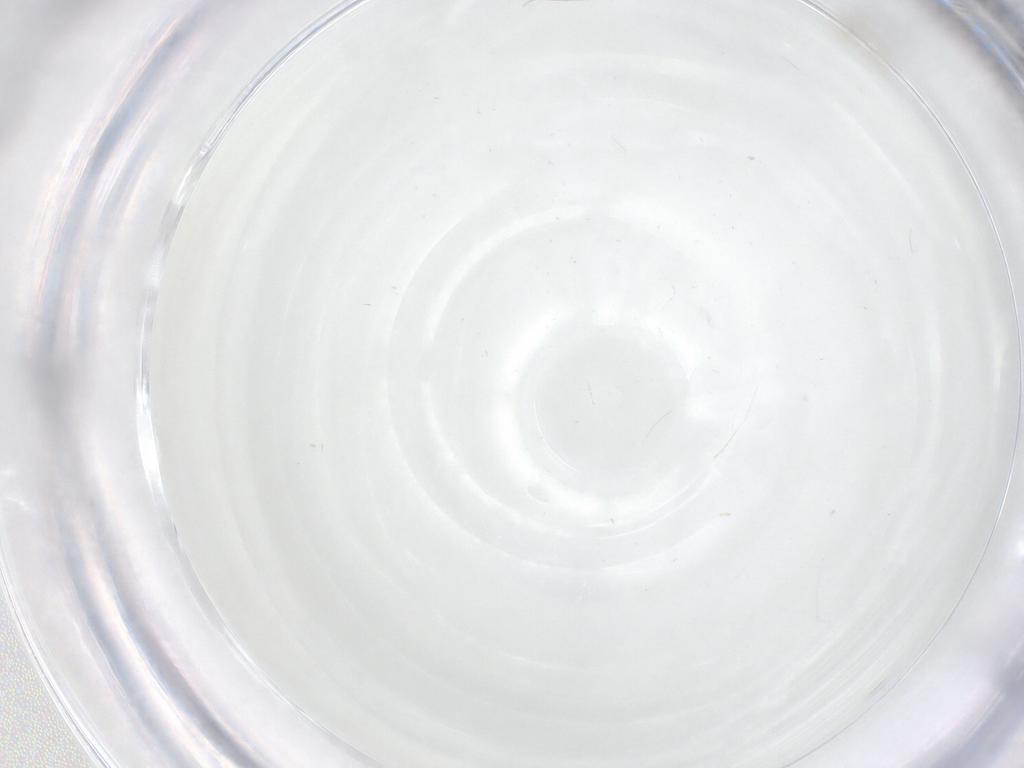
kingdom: Animalia
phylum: Arthropoda
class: Arachnida
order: Mesostigmata
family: Digamasellidae
